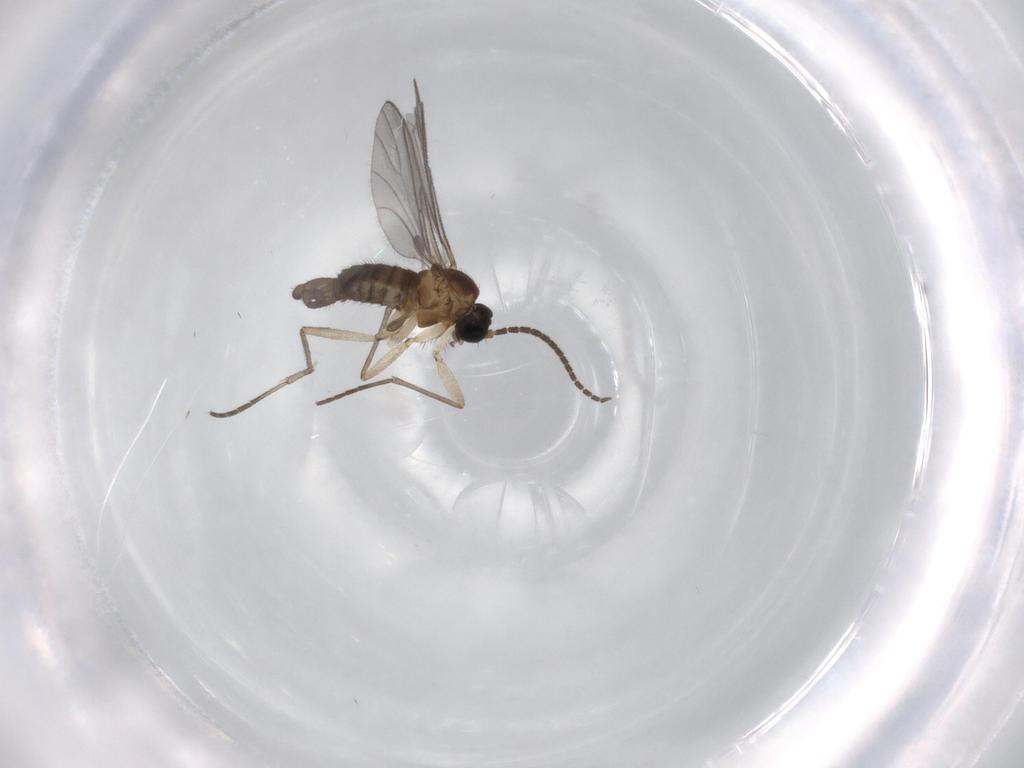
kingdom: Animalia
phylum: Arthropoda
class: Insecta
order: Diptera
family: Sciaridae
